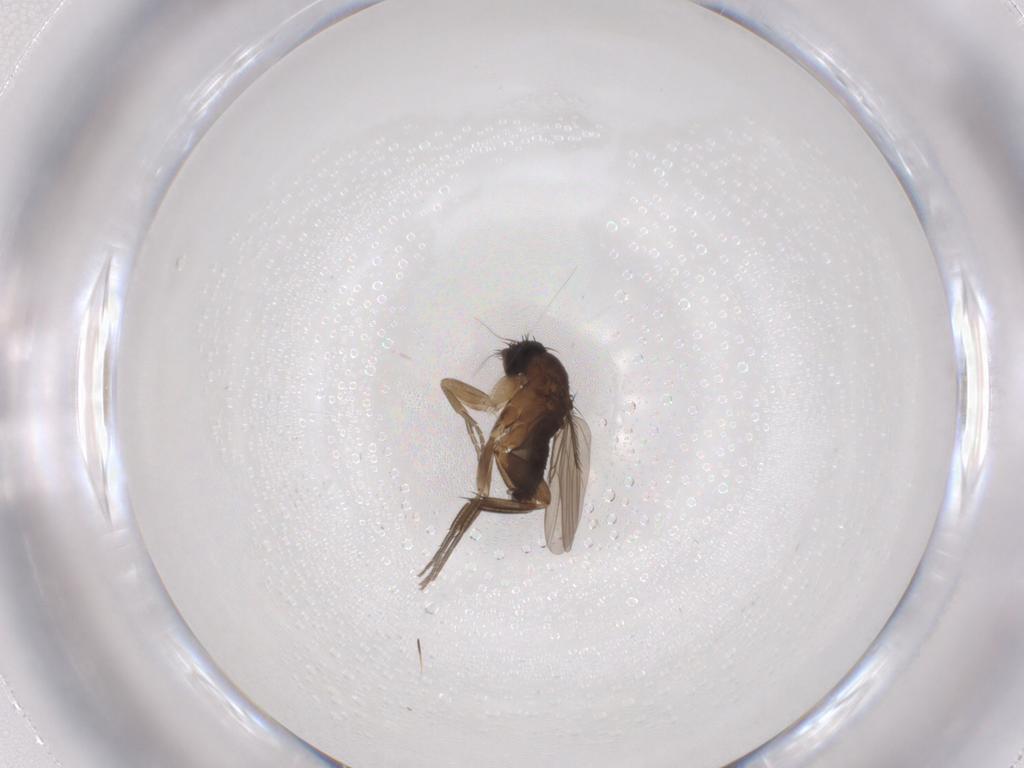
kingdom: Animalia
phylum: Arthropoda
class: Insecta
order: Diptera
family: Phoridae
